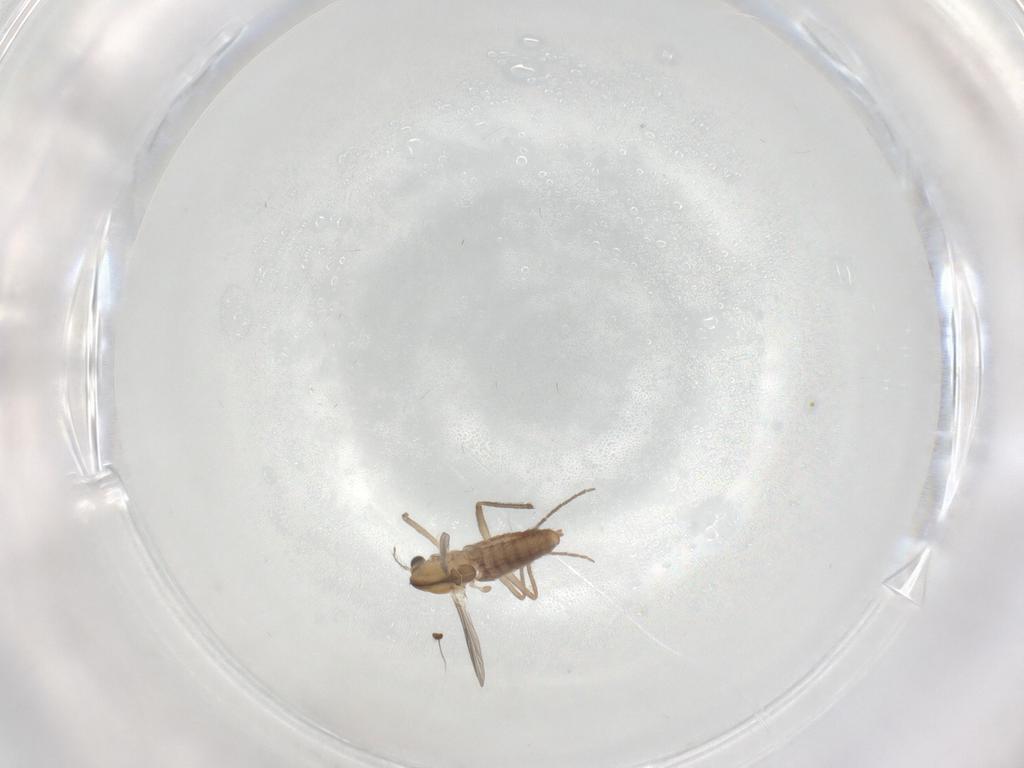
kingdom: Animalia
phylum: Arthropoda
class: Insecta
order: Diptera
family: Chironomidae
